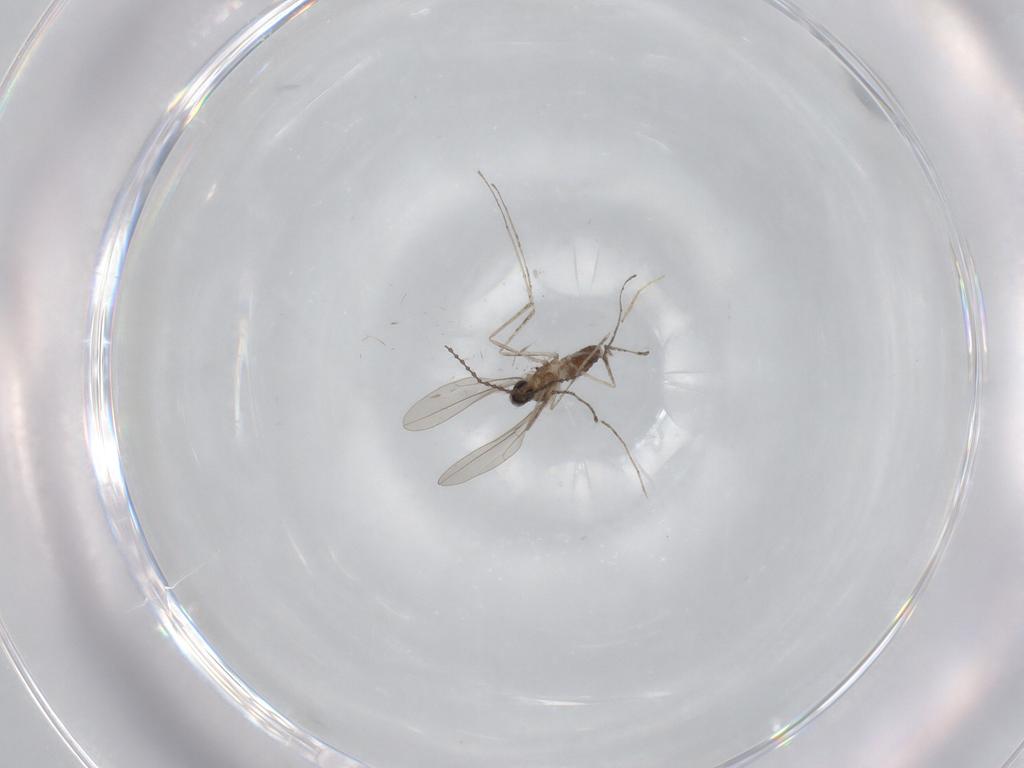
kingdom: Animalia
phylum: Arthropoda
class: Insecta
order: Diptera
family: Cecidomyiidae
